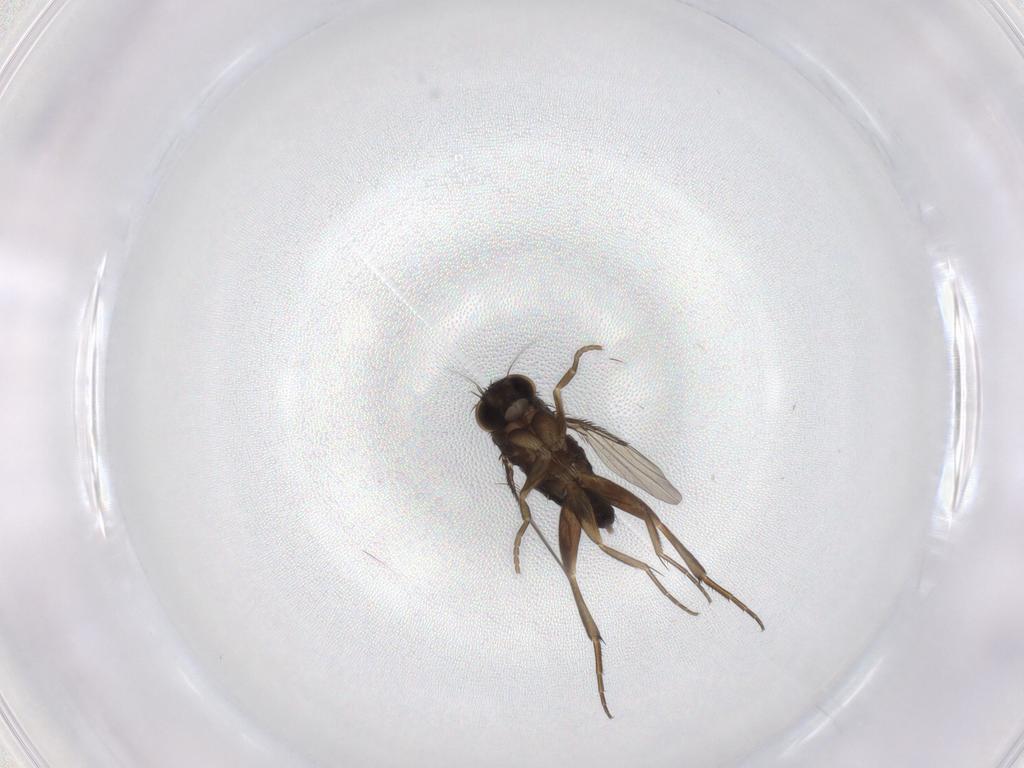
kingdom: Animalia
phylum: Arthropoda
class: Insecta
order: Diptera
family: Phoridae
